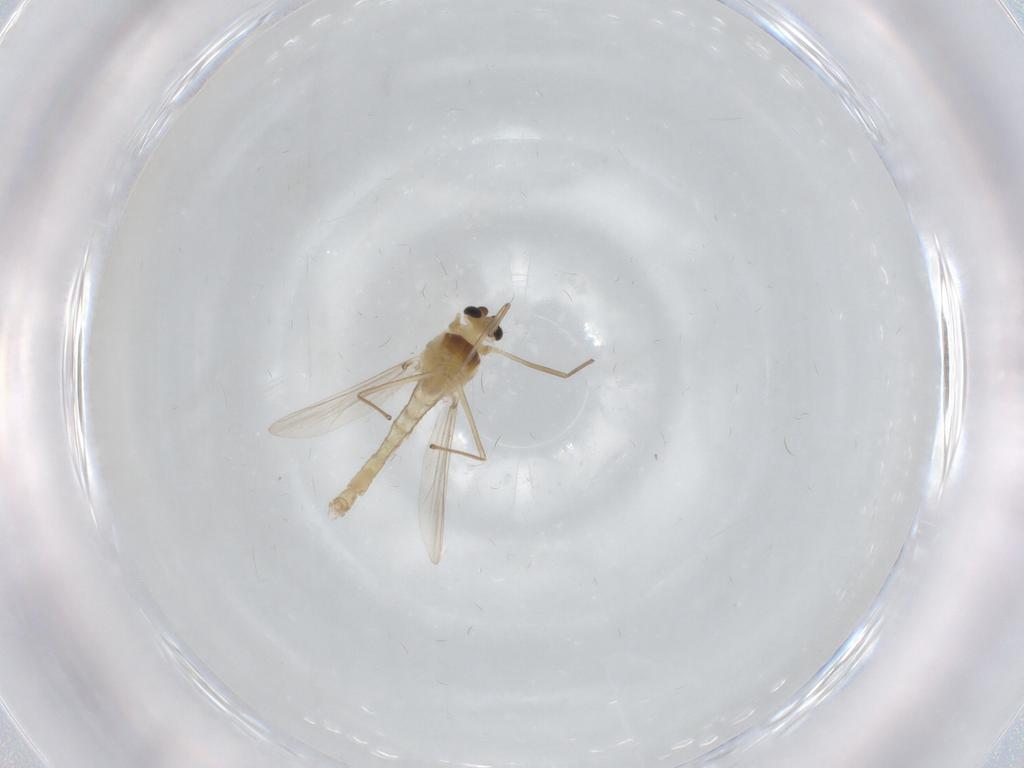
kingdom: Animalia
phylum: Arthropoda
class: Insecta
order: Diptera
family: Chironomidae
